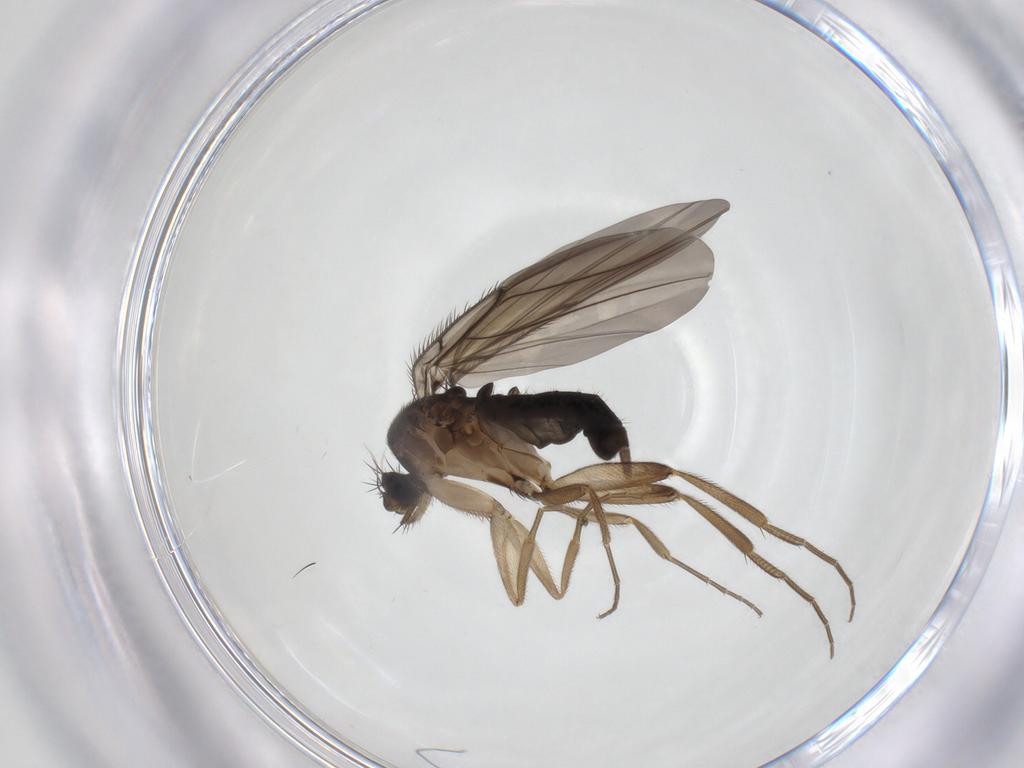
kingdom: Animalia
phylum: Arthropoda
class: Insecta
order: Diptera
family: Phoridae
